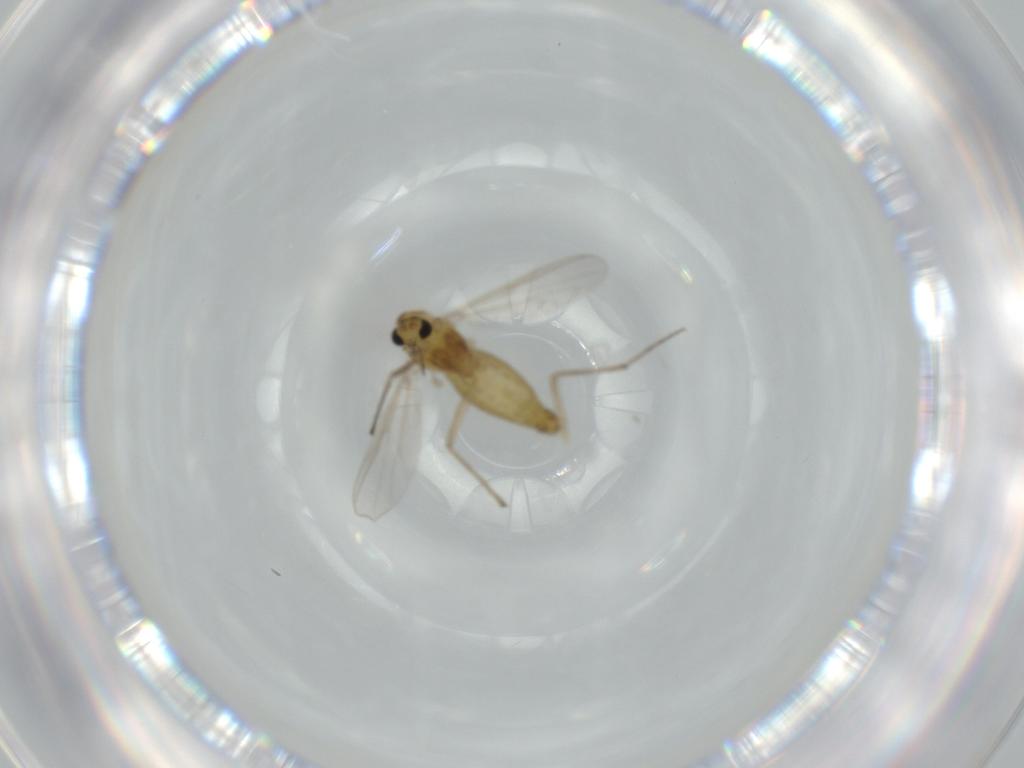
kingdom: Animalia
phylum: Arthropoda
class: Insecta
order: Diptera
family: Chironomidae
